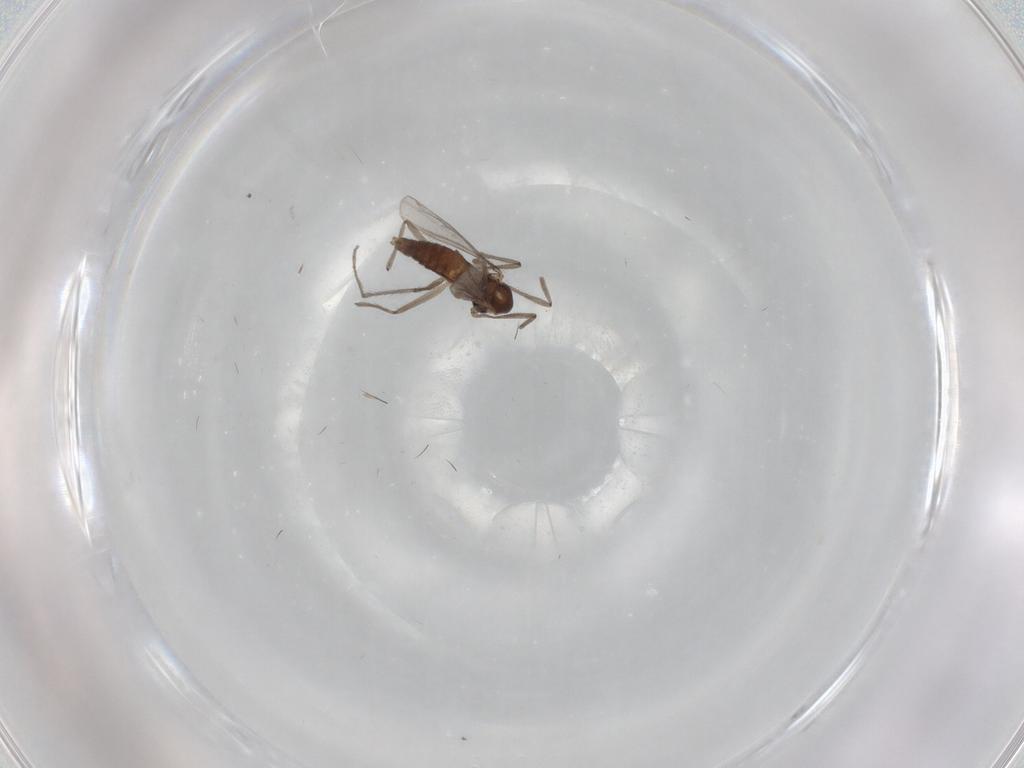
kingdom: Animalia
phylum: Arthropoda
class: Insecta
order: Diptera
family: Chironomidae
